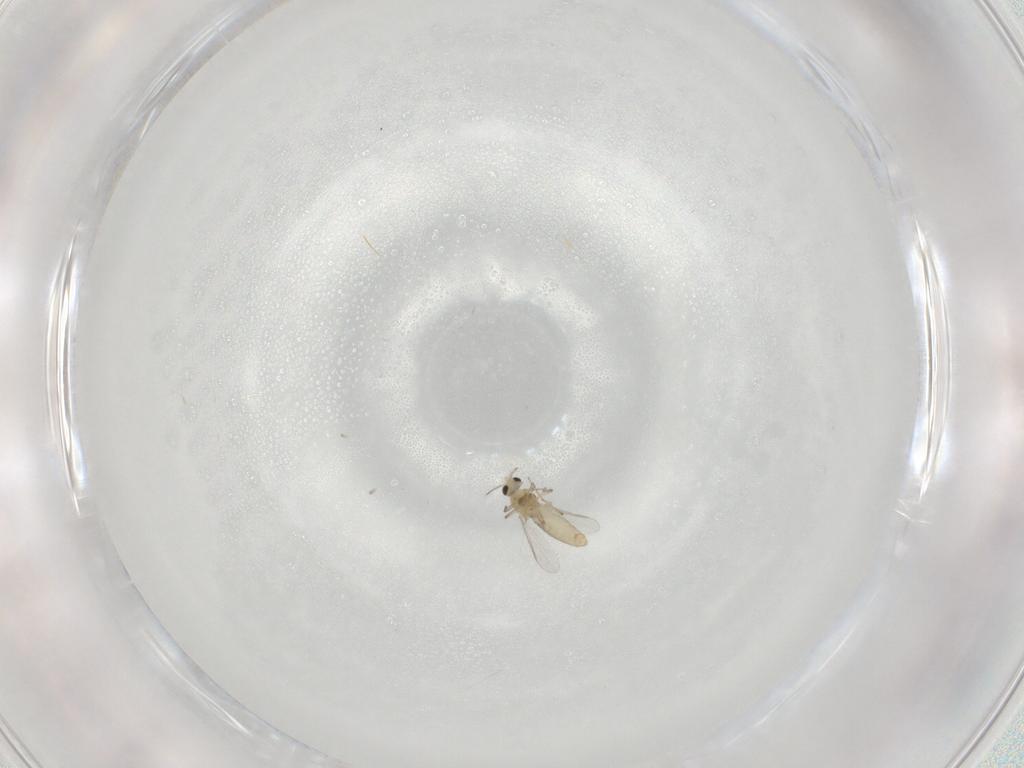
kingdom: Animalia
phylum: Arthropoda
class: Insecta
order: Diptera
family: Chironomidae
